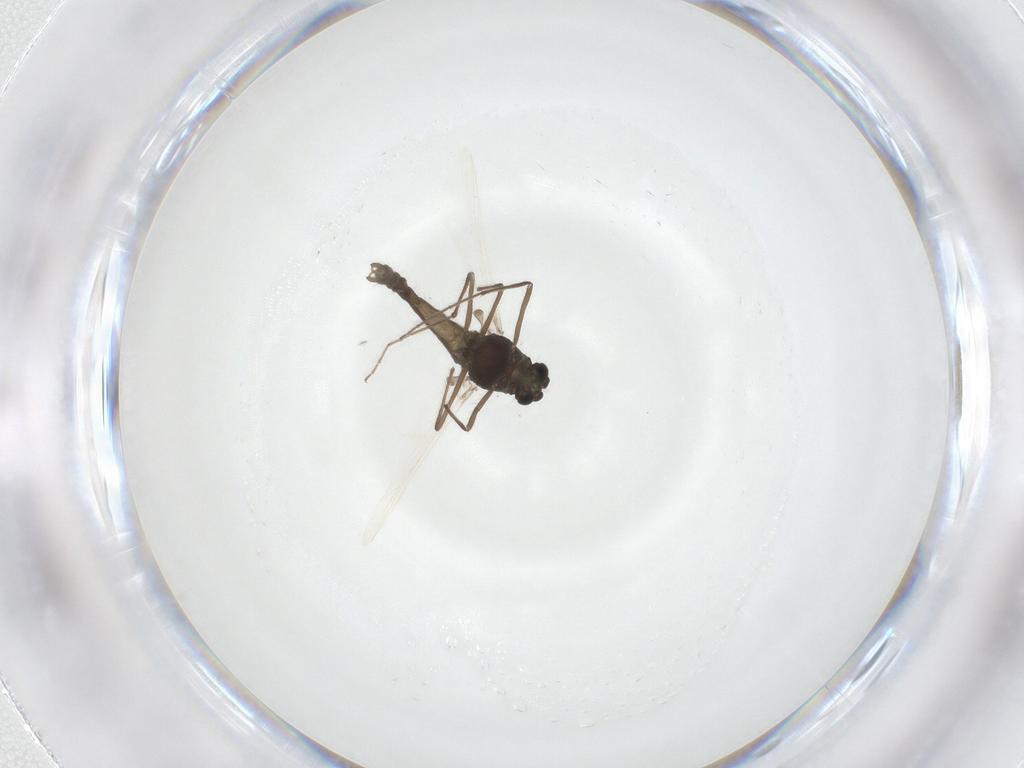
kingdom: Animalia
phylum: Arthropoda
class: Insecta
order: Diptera
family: Chironomidae
